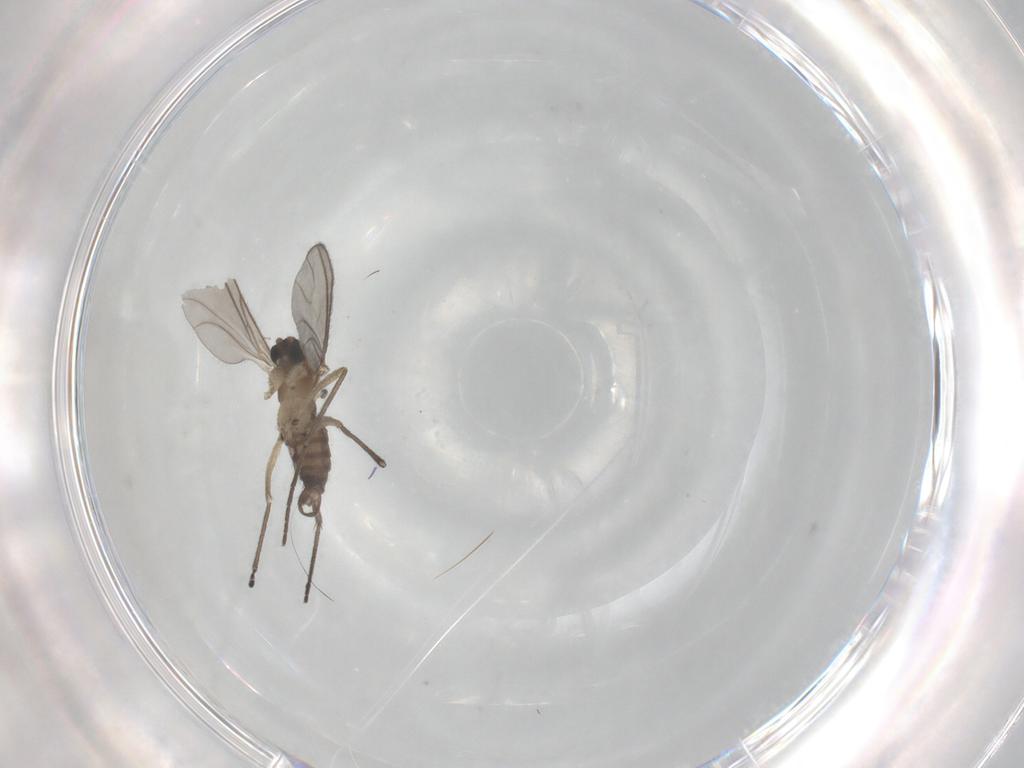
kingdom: Animalia
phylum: Arthropoda
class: Insecta
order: Diptera
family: Sciaridae
